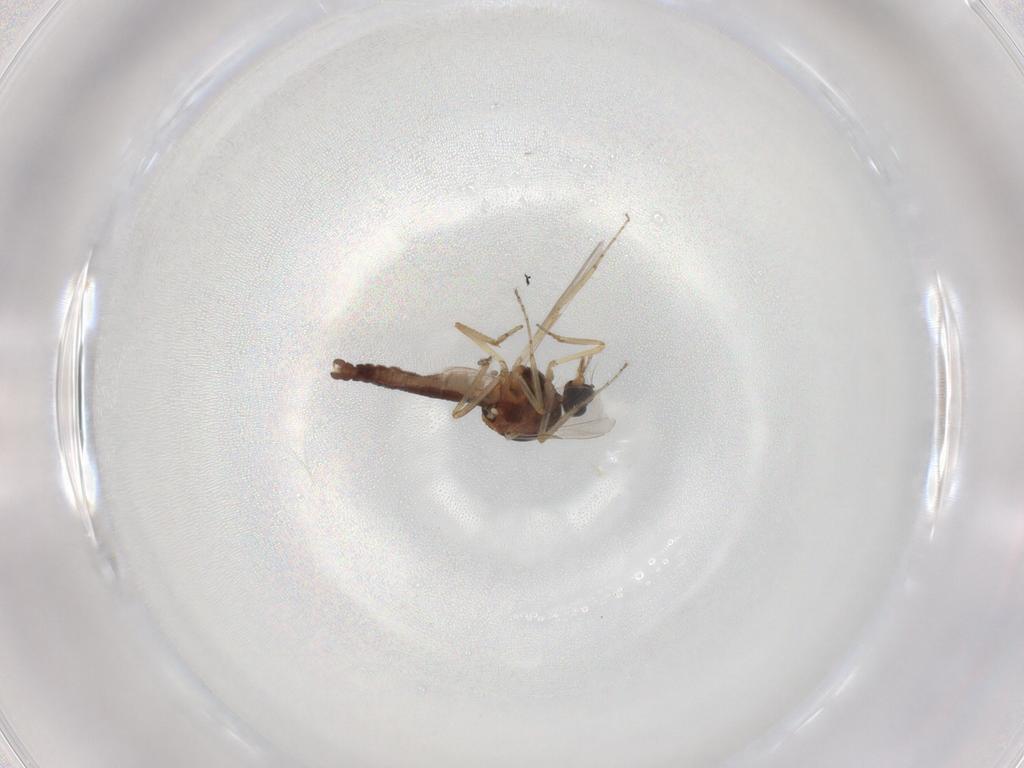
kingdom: Animalia
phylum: Arthropoda
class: Insecta
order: Diptera
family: Ceratopogonidae
